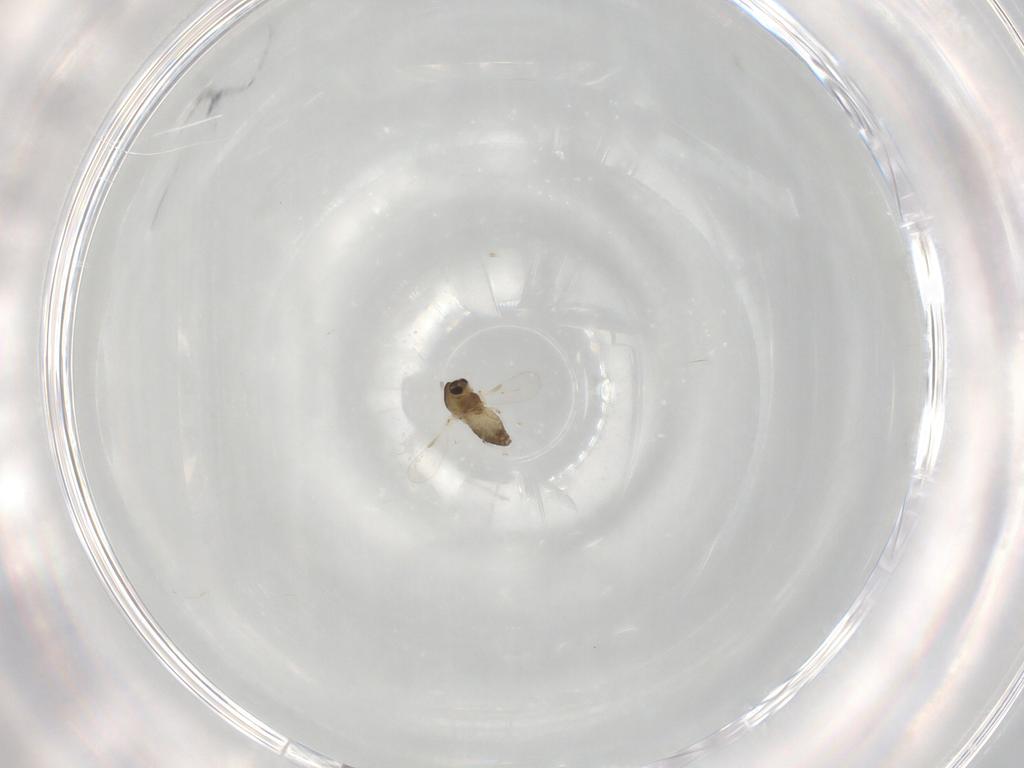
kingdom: Animalia
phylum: Arthropoda
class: Insecta
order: Diptera
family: Chironomidae
